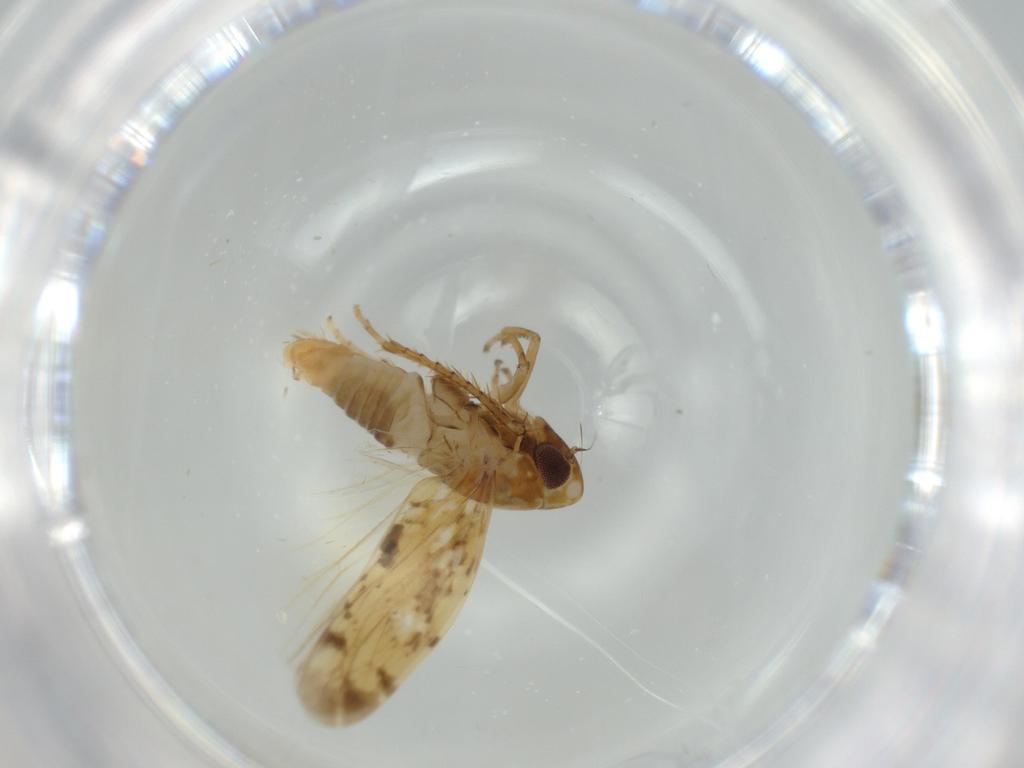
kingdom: Animalia
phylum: Arthropoda
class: Insecta
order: Hemiptera
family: Cicadellidae
